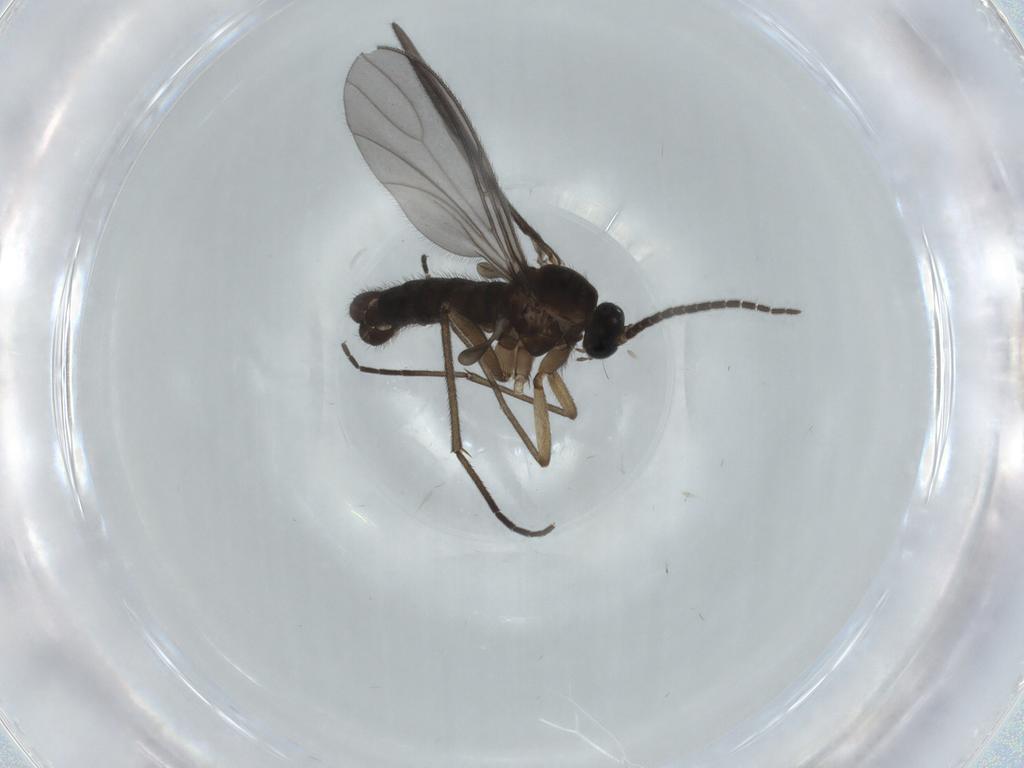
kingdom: Animalia
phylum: Arthropoda
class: Insecta
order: Diptera
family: Sciaridae
